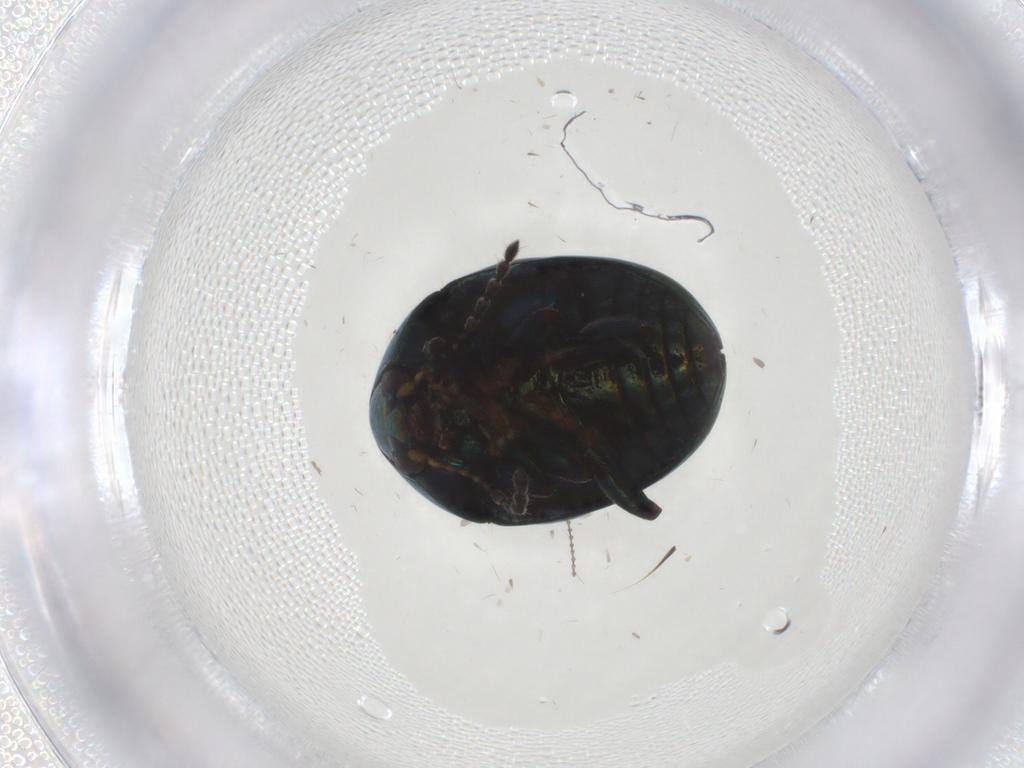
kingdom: Animalia
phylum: Arthropoda
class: Insecta
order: Coleoptera
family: Chrysomelidae
